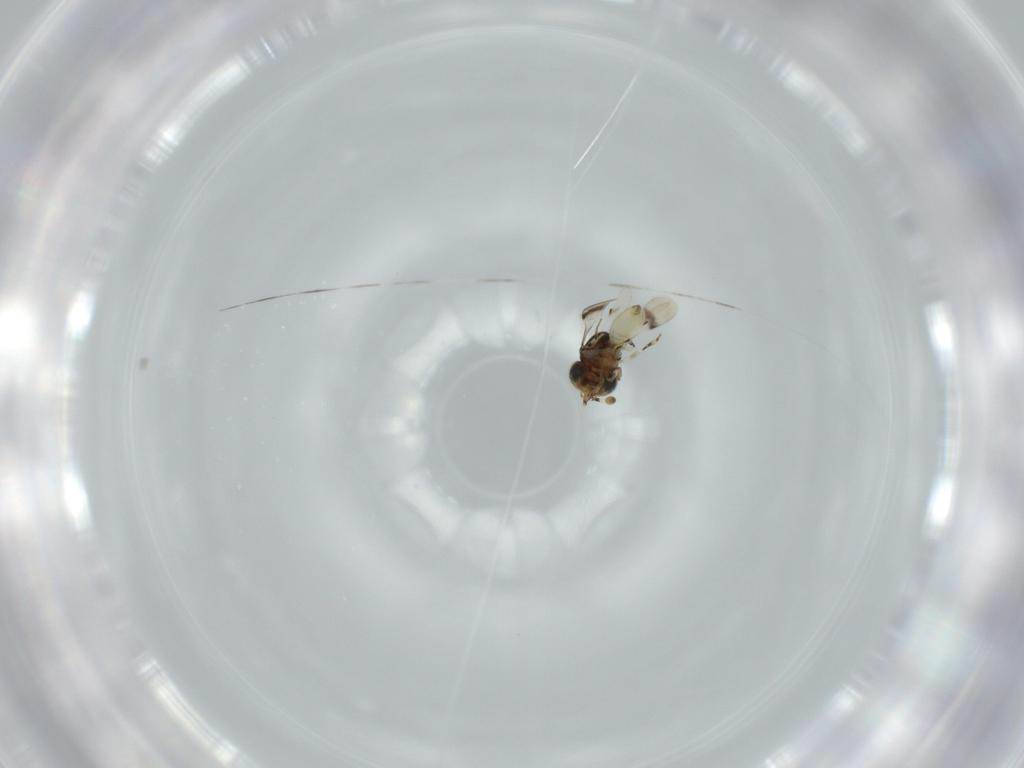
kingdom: Animalia
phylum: Arthropoda
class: Insecta
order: Hymenoptera
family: Scelionidae
